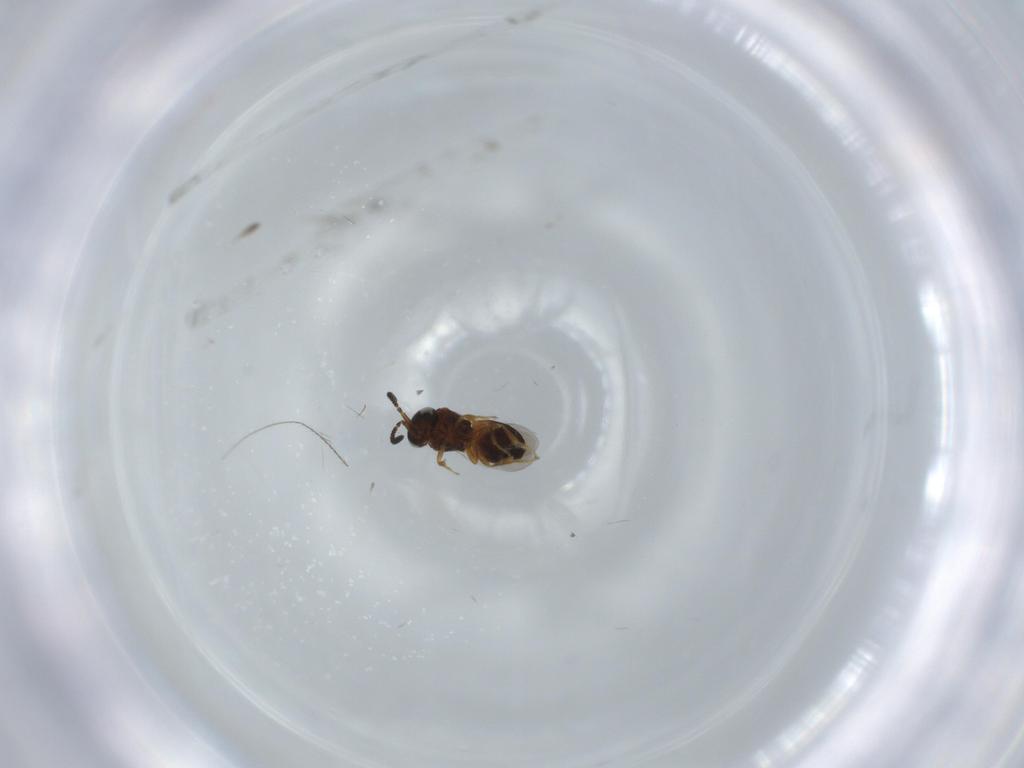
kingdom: Animalia
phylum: Arthropoda
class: Insecta
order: Hymenoptera
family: Scelionidae
